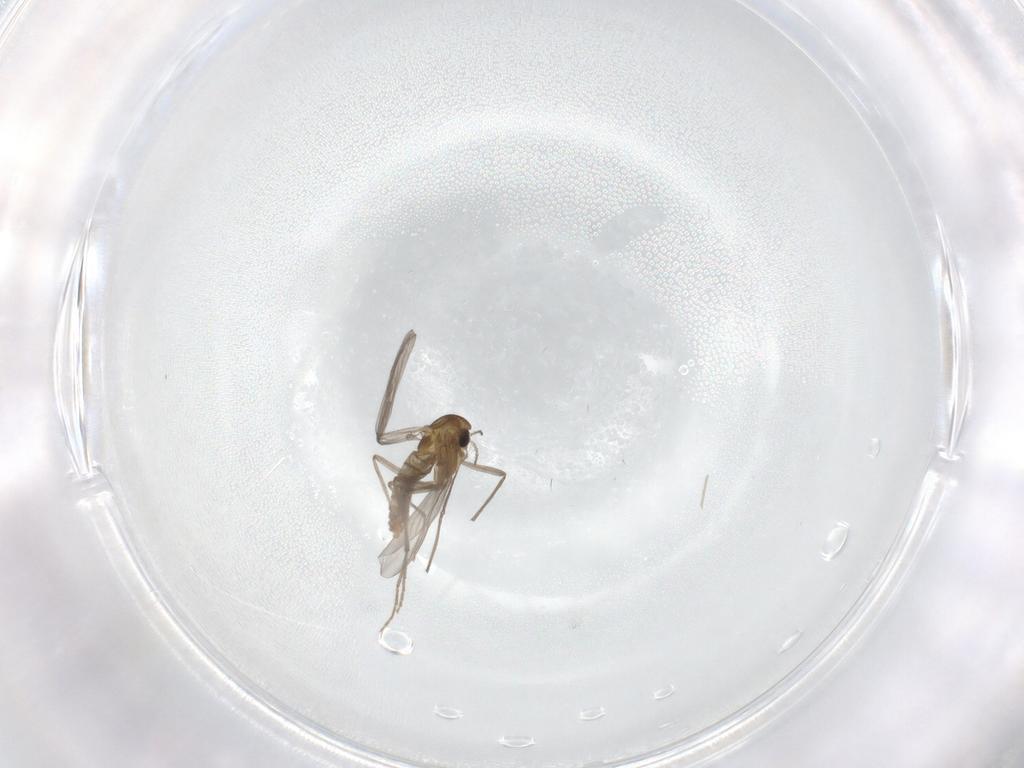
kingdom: Animalia
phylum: Arthropoda
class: Insecta
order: Diptera
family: Chironomidae
